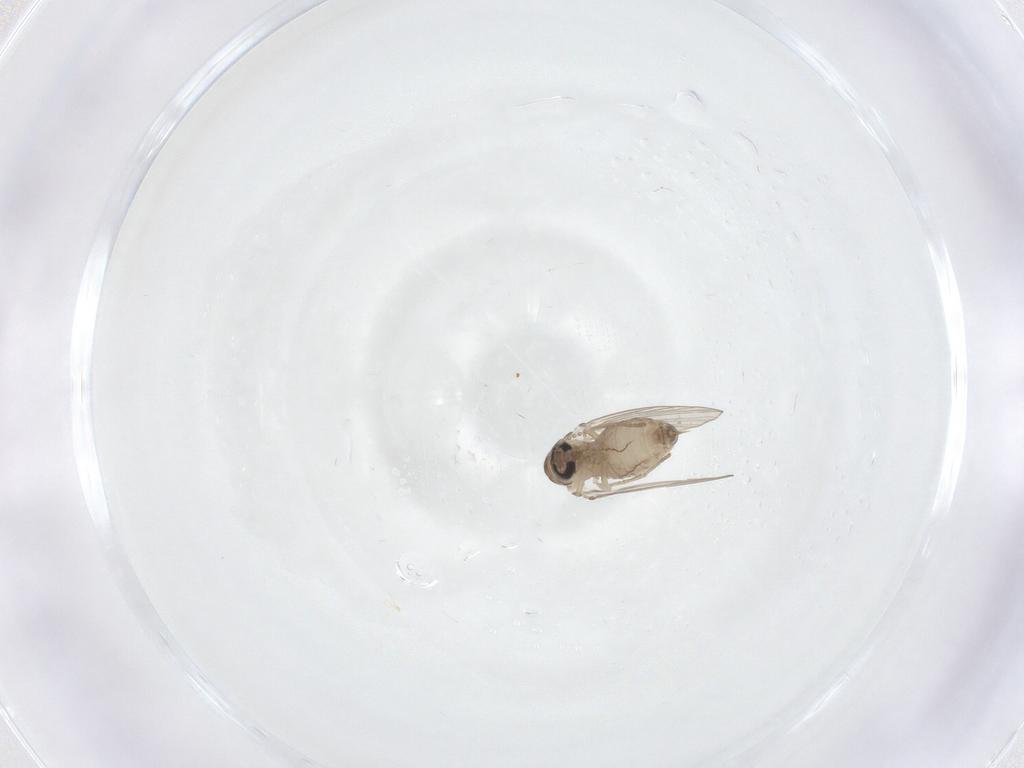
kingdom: Animalia
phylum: Arthropoda
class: Insecta
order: Diptera
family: Psychodidae
